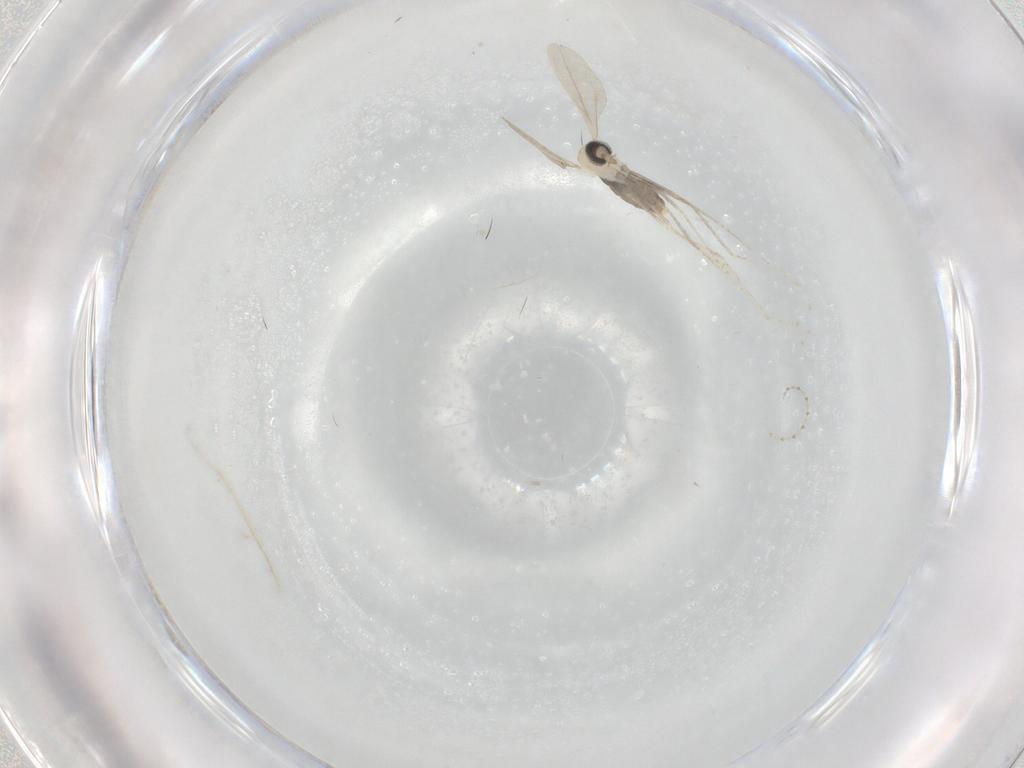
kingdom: Animalia
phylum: Arthropoda
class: Insecta
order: Diptera
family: Cecidomyiidae
